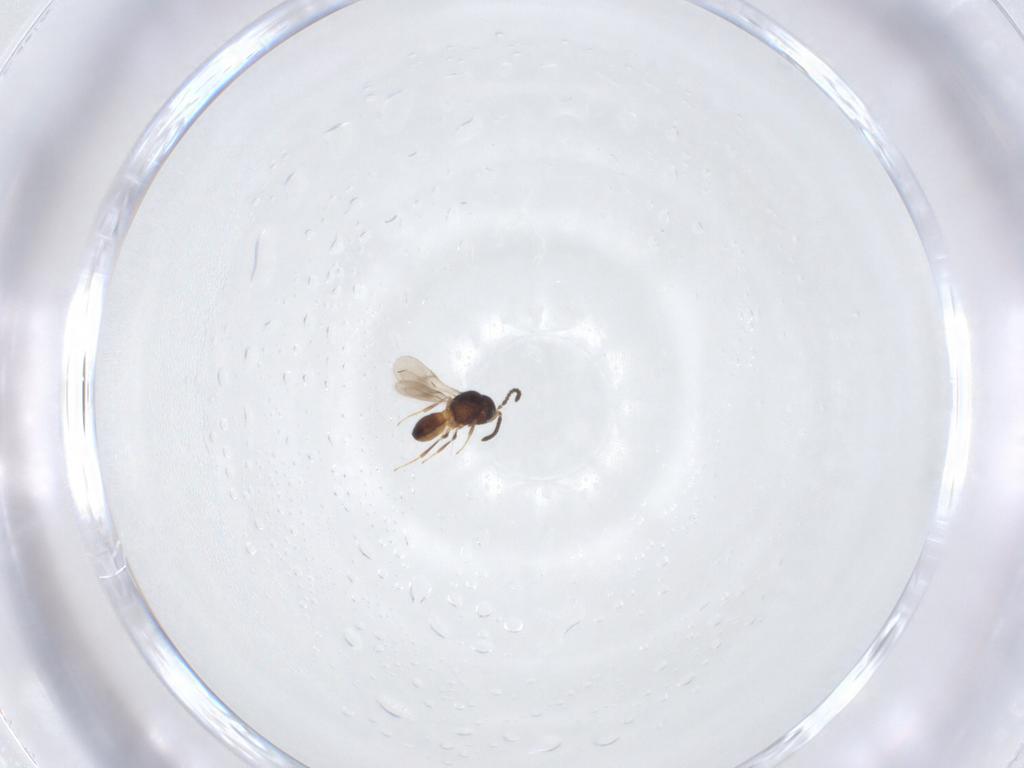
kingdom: Animalia
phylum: Arthropoda
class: Insecta
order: Hymenoptera
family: Scelionidae
